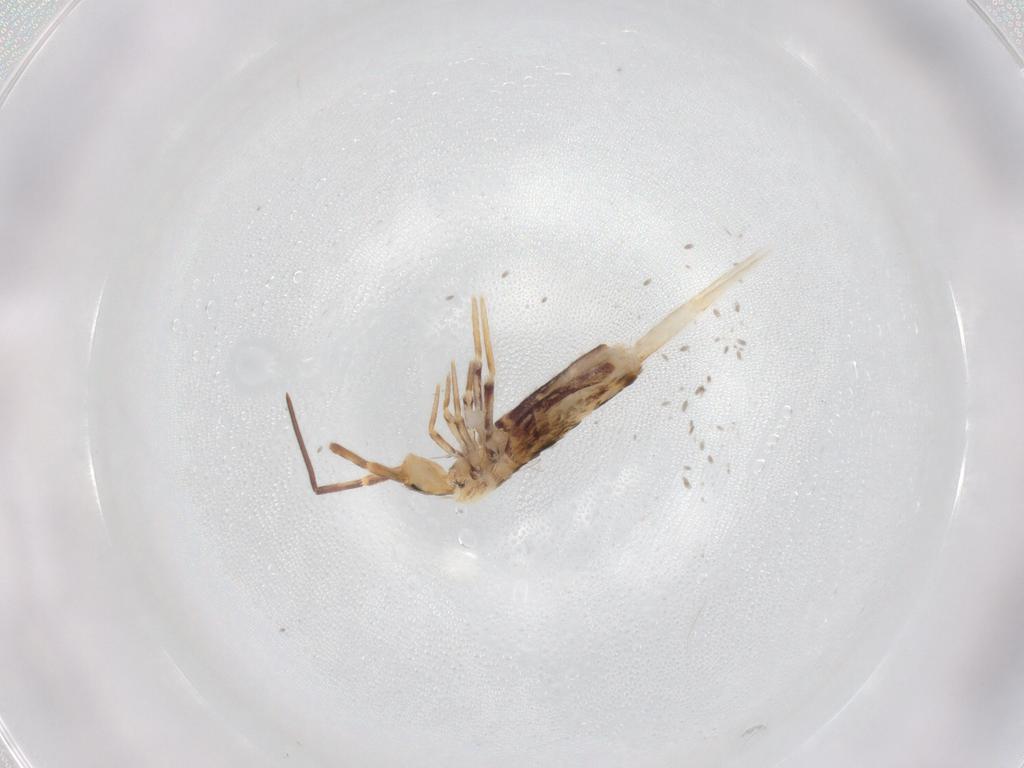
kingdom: Animalia
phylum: Arthropoda
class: Collembola
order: Poduromorpha
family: Hypogastruridae
